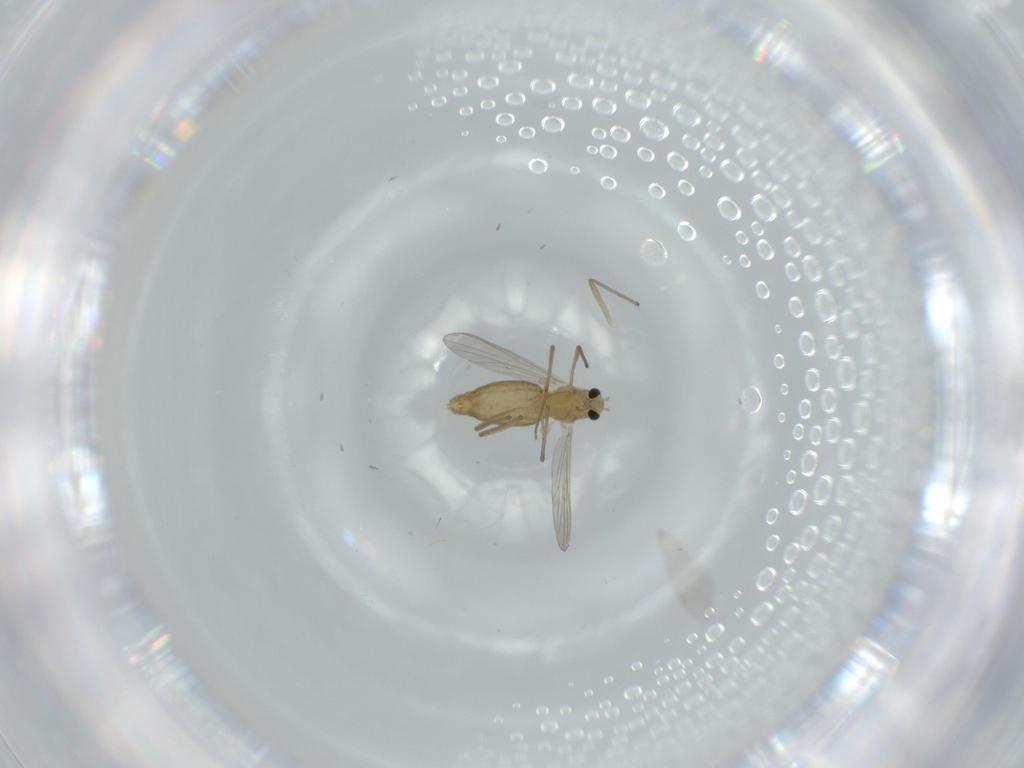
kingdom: Animalia
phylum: Arthropoda
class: Insecta
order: Diptera
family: Chironomidae
